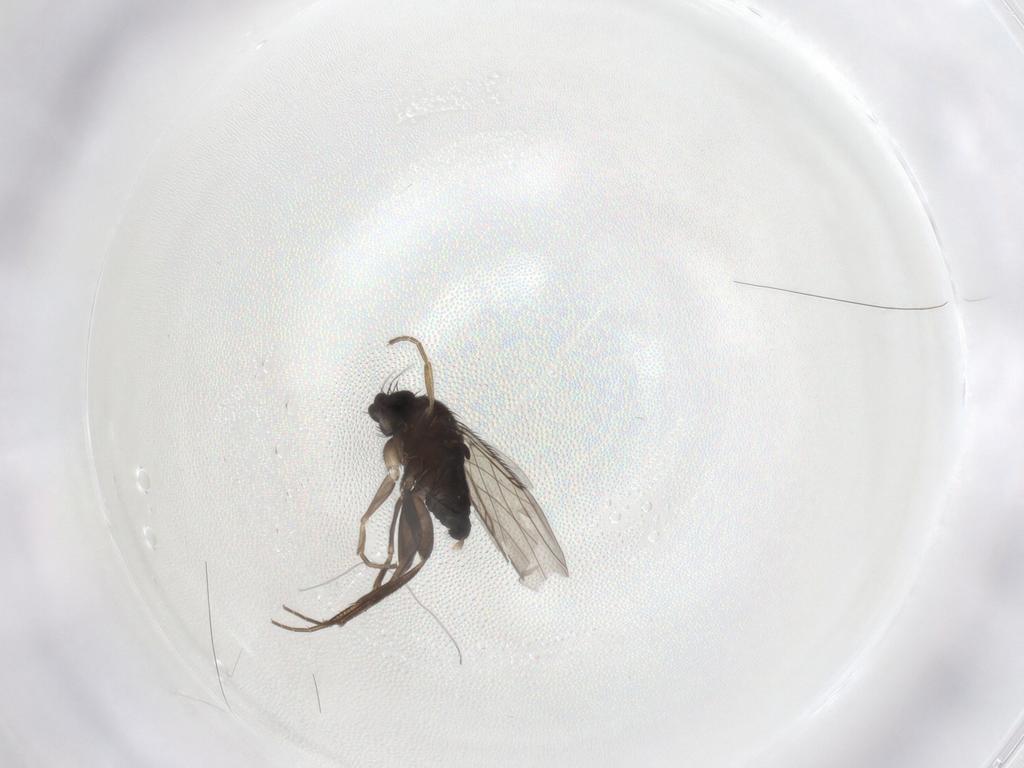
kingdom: Animalia
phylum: Arthropoda
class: Insecta
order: Diptera
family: Phoridae
